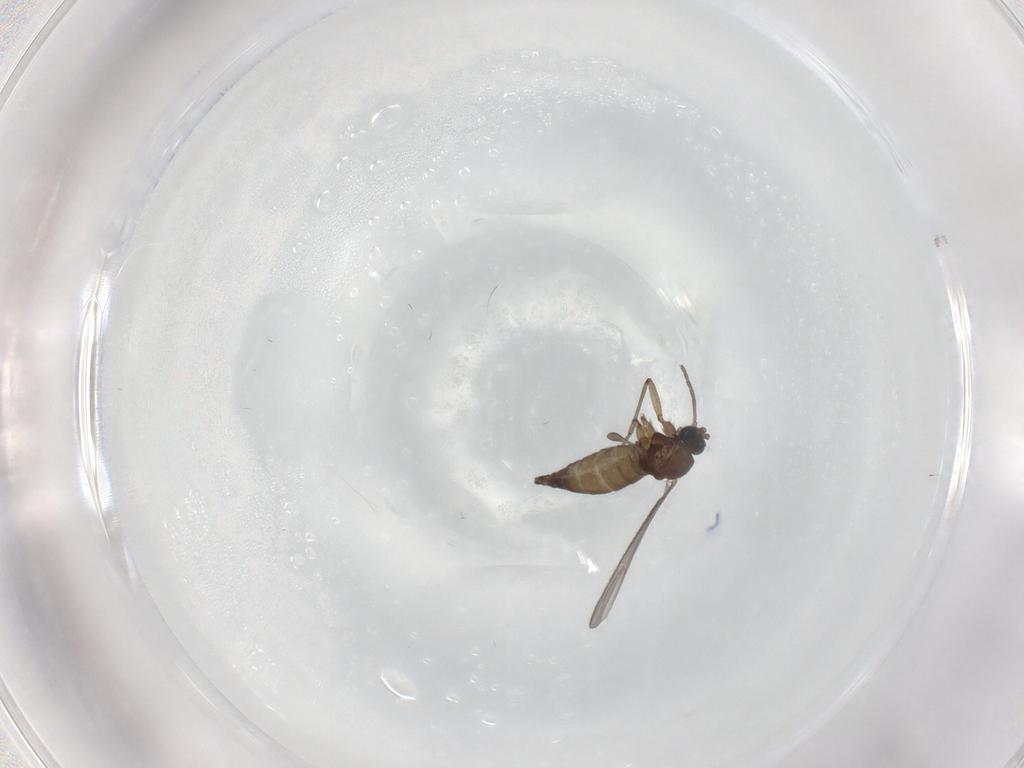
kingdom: Animalia
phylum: Arthropoda
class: Insecta
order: Diptera
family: Sciaridae
